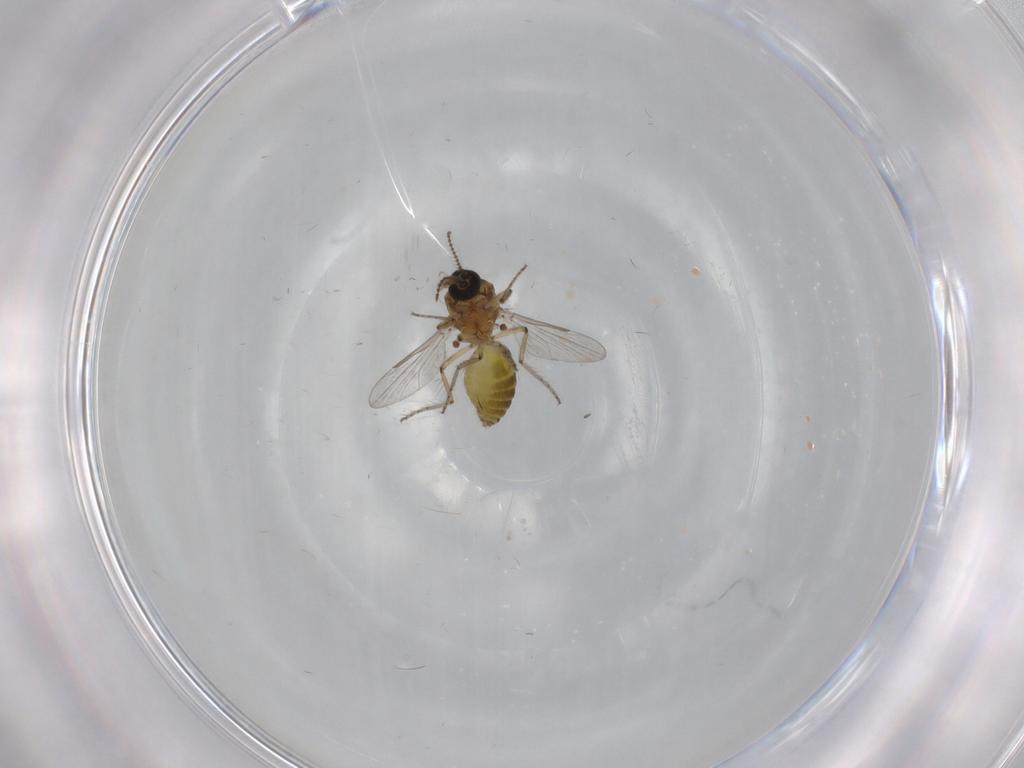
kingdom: Animalia
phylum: Arthropoda
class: Insecta
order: Diptera
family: Ceratopogonidae
